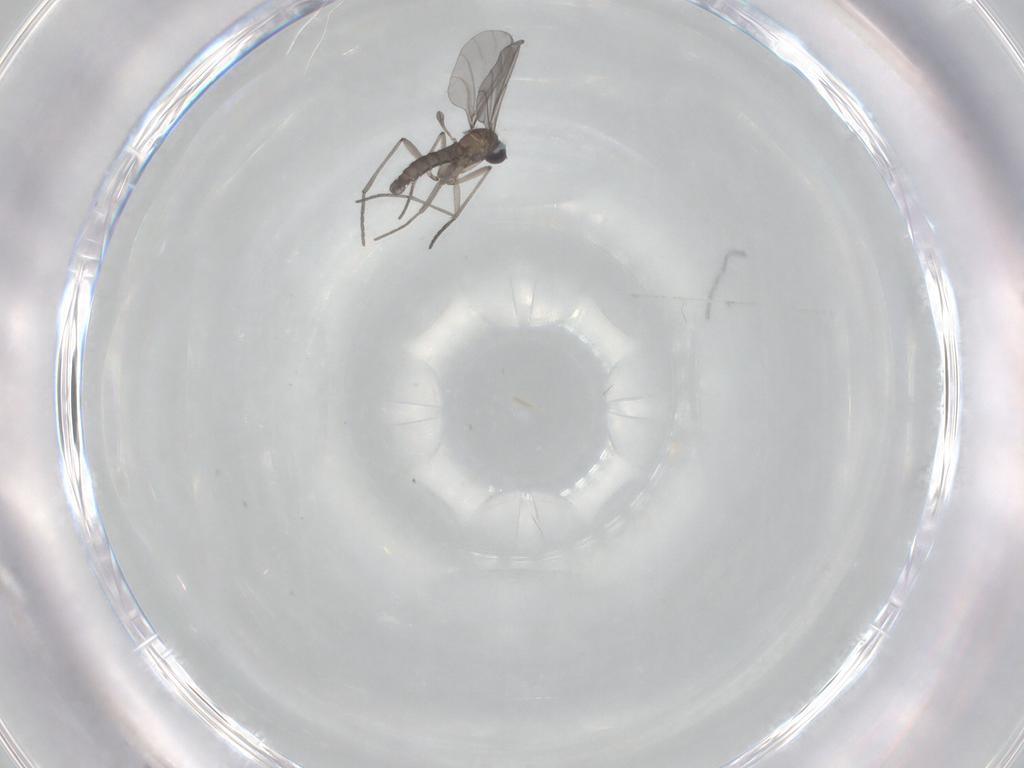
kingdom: Animalia
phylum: Arthropoda
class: Insecta
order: Diptera
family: Sciaridae
